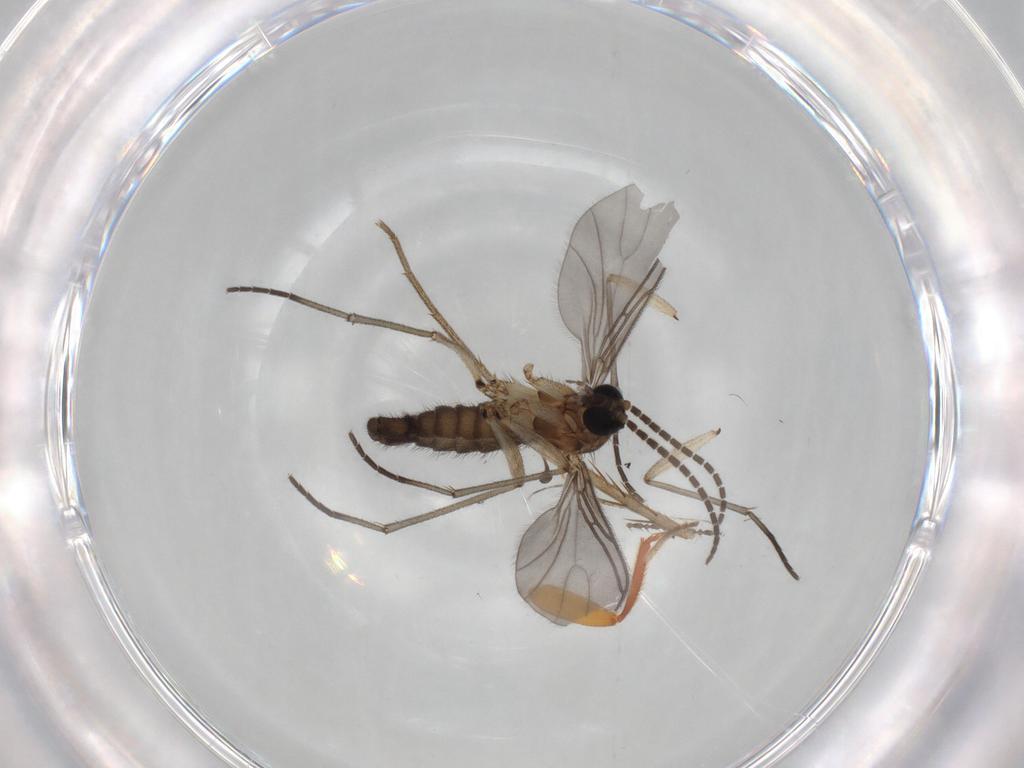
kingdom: Animalia
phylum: Arthropoda
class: Insecta
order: Diptera
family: Sciaridae
